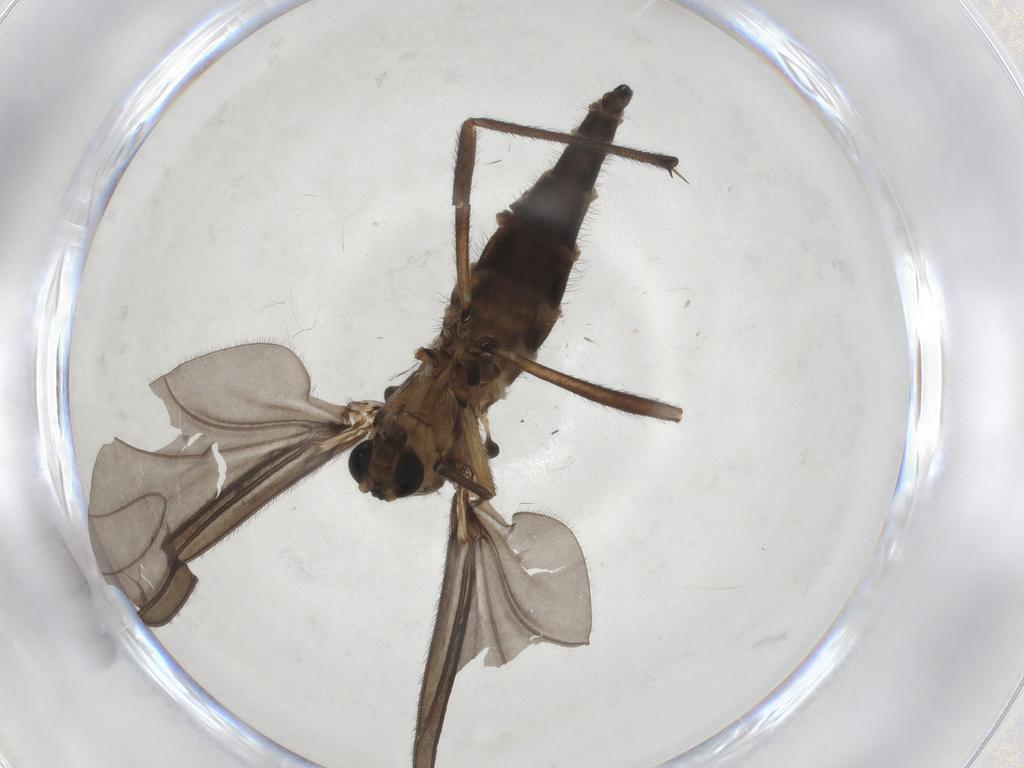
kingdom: Animalia
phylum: Arthropoda
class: Insecta
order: Diptera
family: Sciaridae
